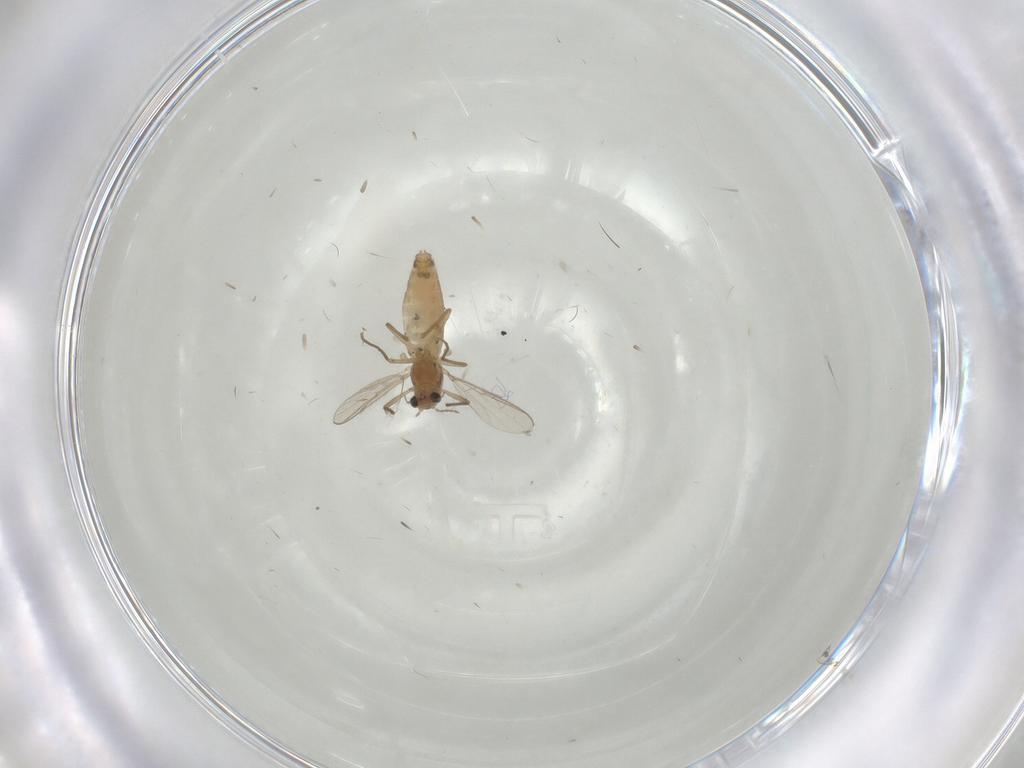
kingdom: Animalia
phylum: Arthropoda
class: Insecta
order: Diptera
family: Chironomidae
